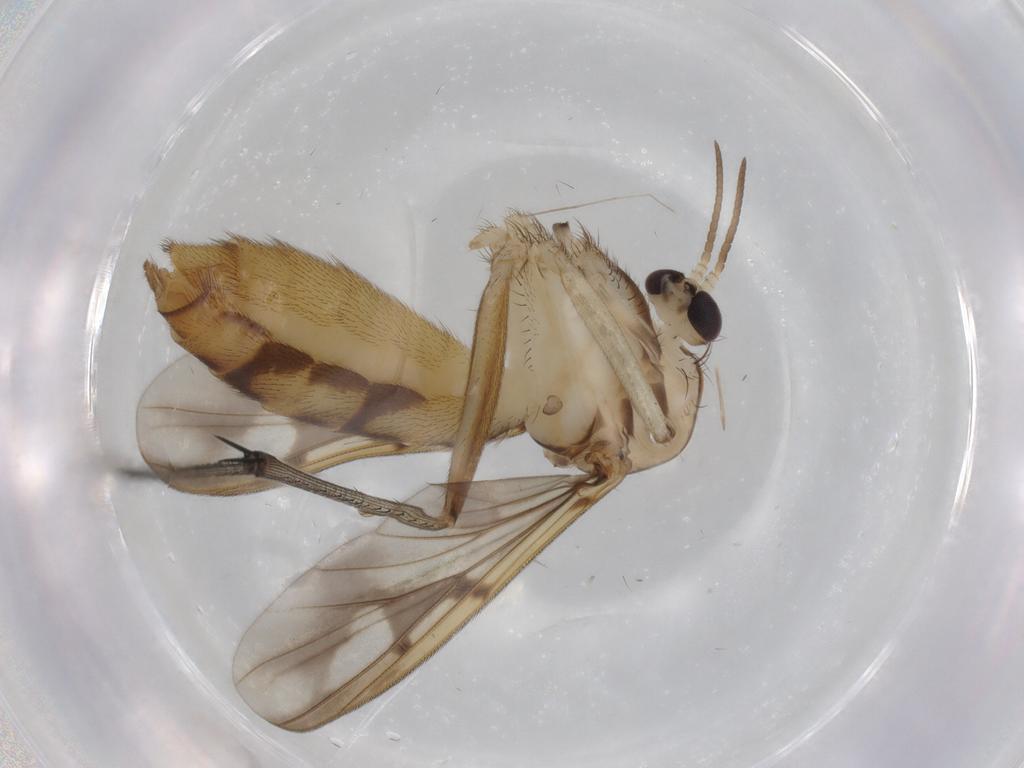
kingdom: Animalia
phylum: Arthropoda
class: Insecta
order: Diptera
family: Mycetophilidae
